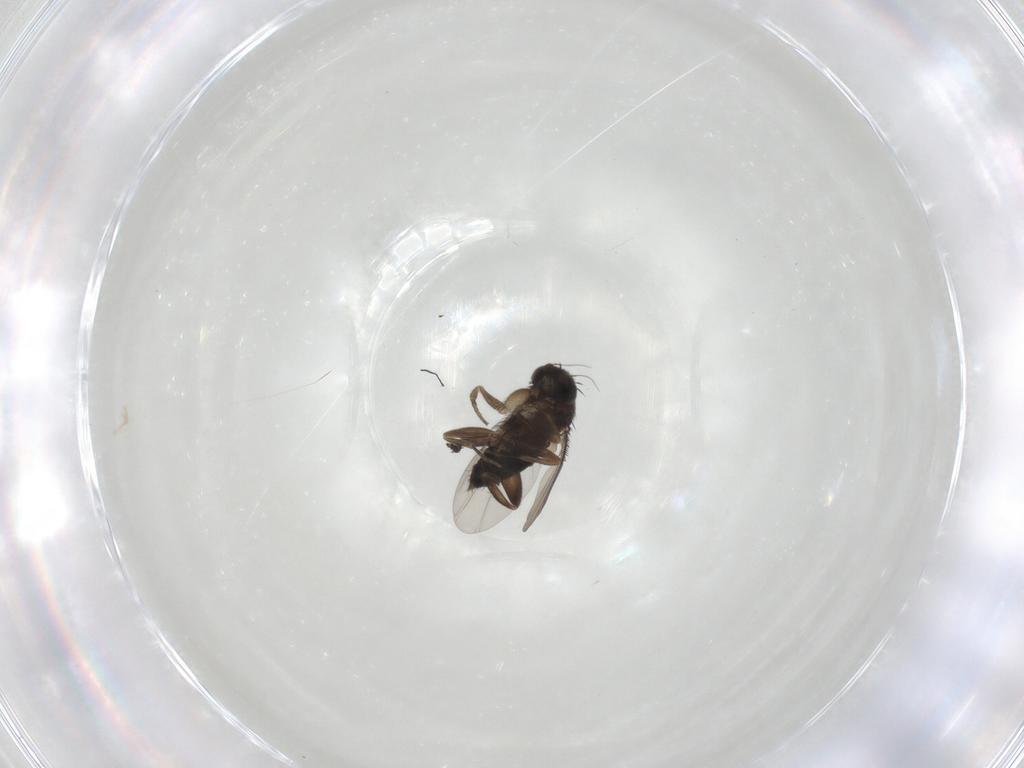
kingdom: Animalia
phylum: Arthropoda
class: Insecta
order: Diptera
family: Phoridae
